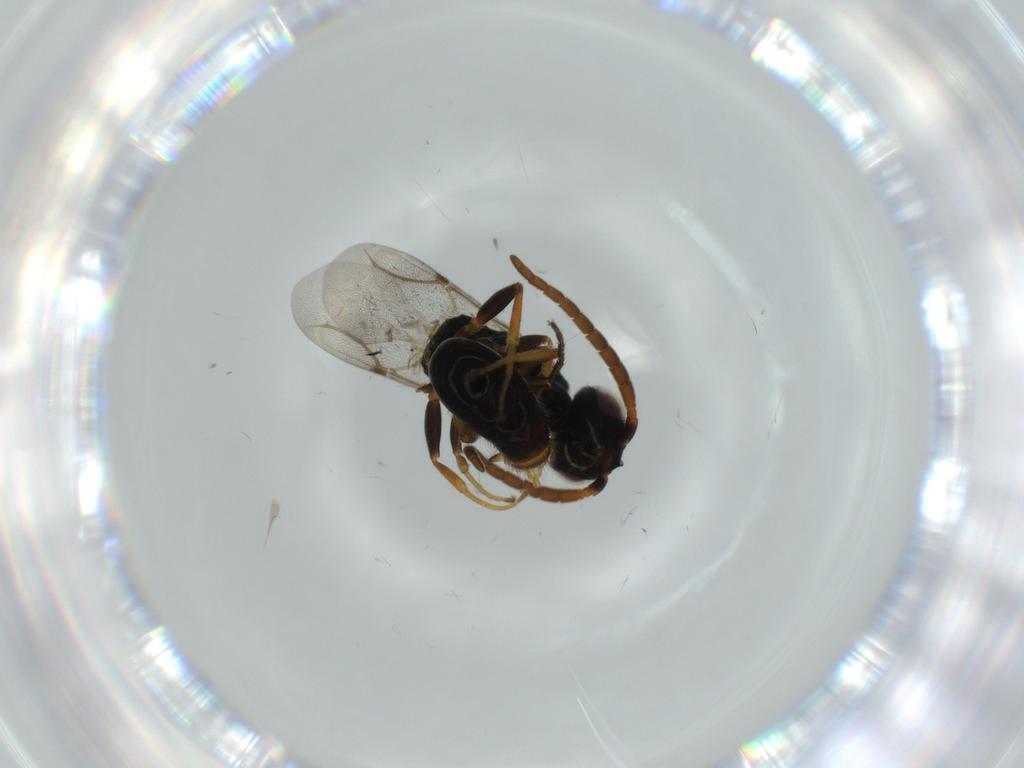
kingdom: Animalia
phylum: Arthropoda
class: Insecta
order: Hymenoptera
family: Bethylidae
